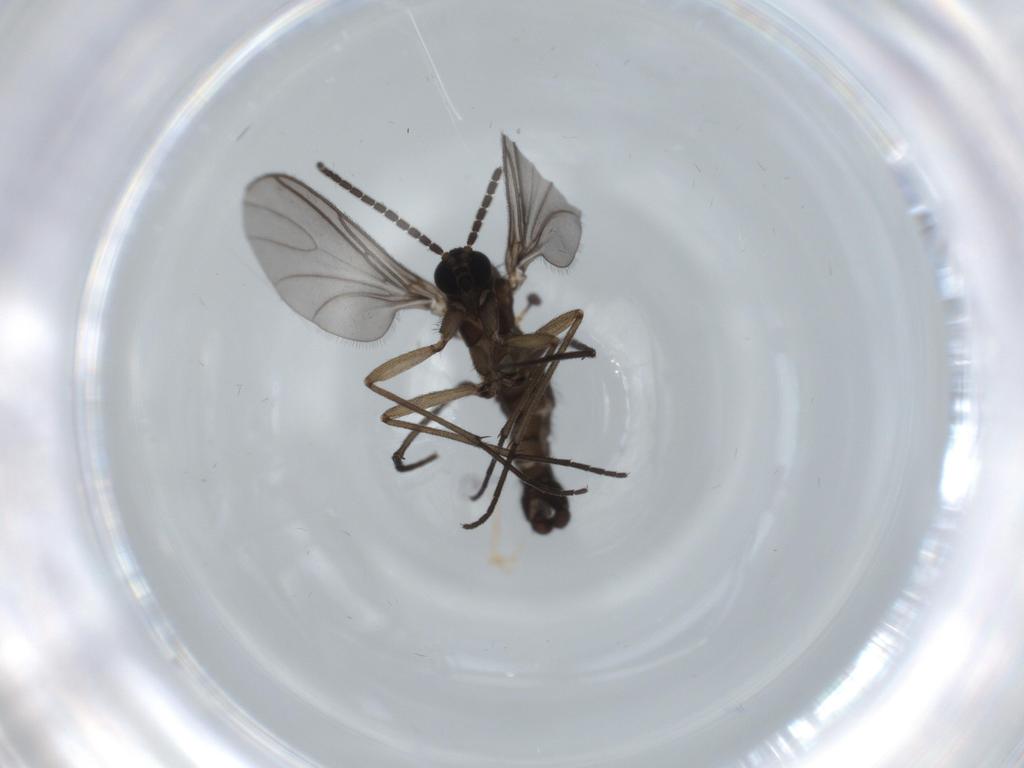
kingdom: Animalia
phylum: Arthropoda
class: Insecta
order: Diptera
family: Sciaridae
